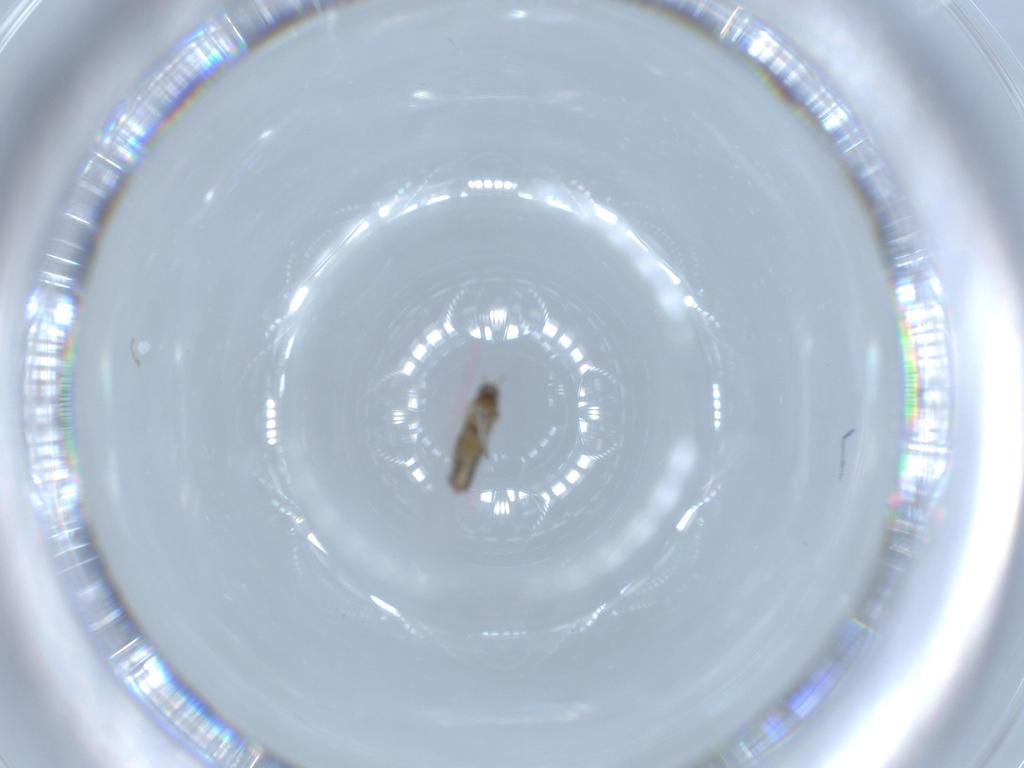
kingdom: Animalia
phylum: Arthropoda
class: Insecta
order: Diptera
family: Cecidomyiidae
